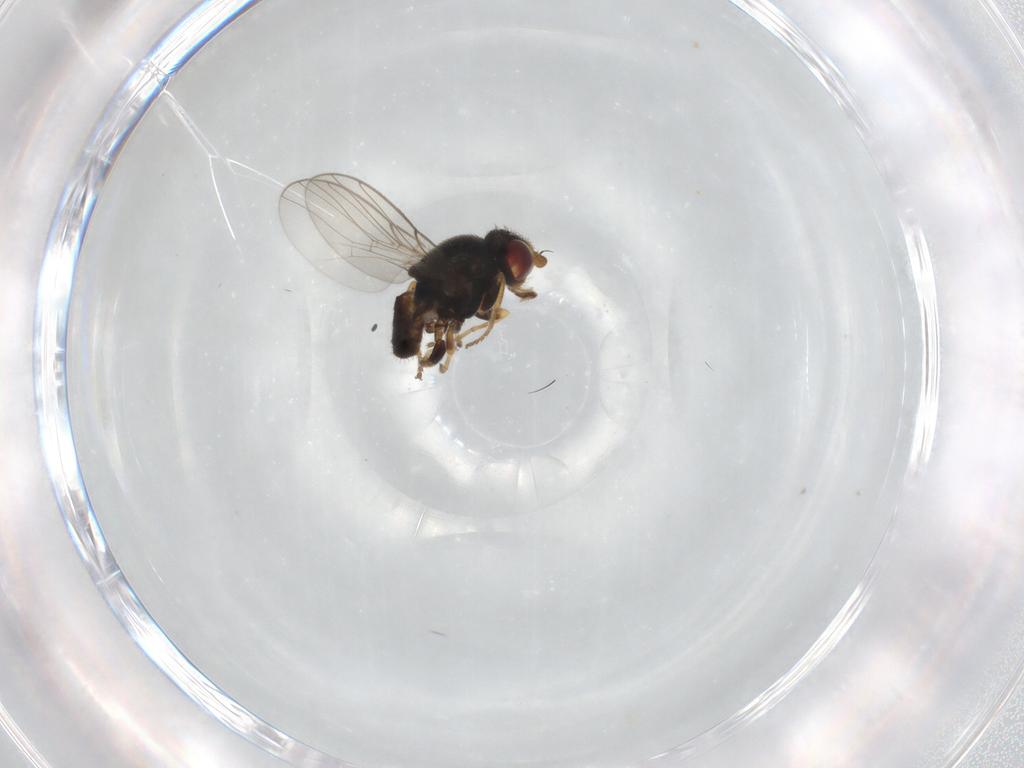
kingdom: Animalia
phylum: Arthropoda
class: Insecta
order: Diptera
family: Chloropidae
